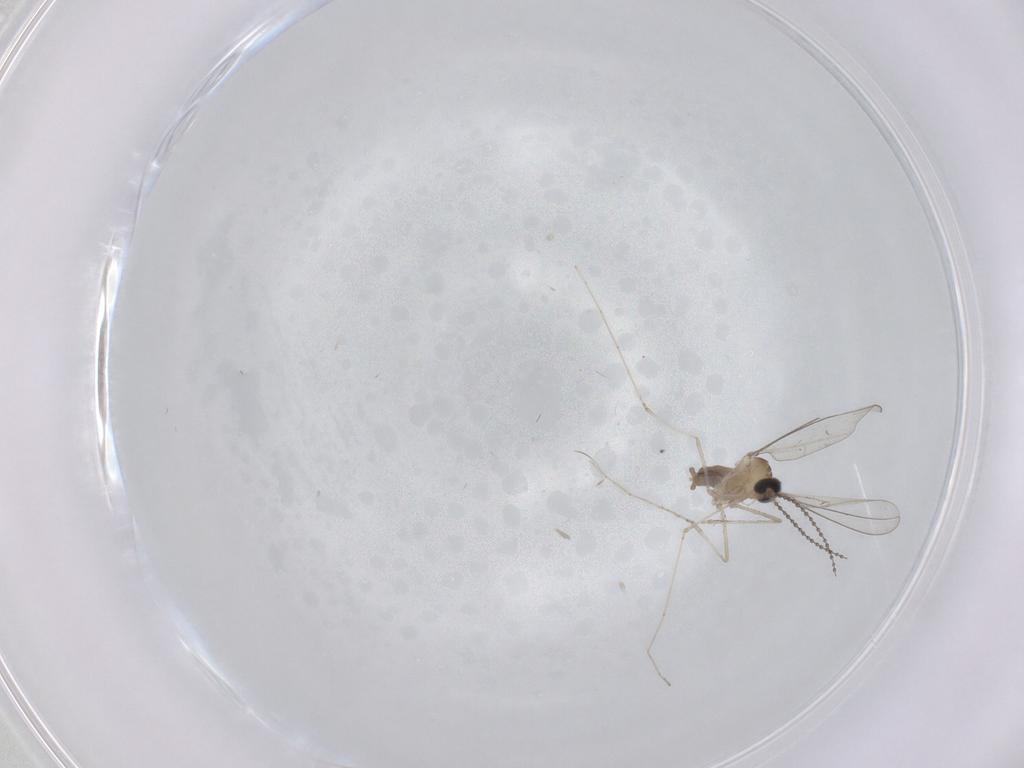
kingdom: Animalia
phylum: Arthropoda
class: Insecta
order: Diptera
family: Cecidomyiidae
